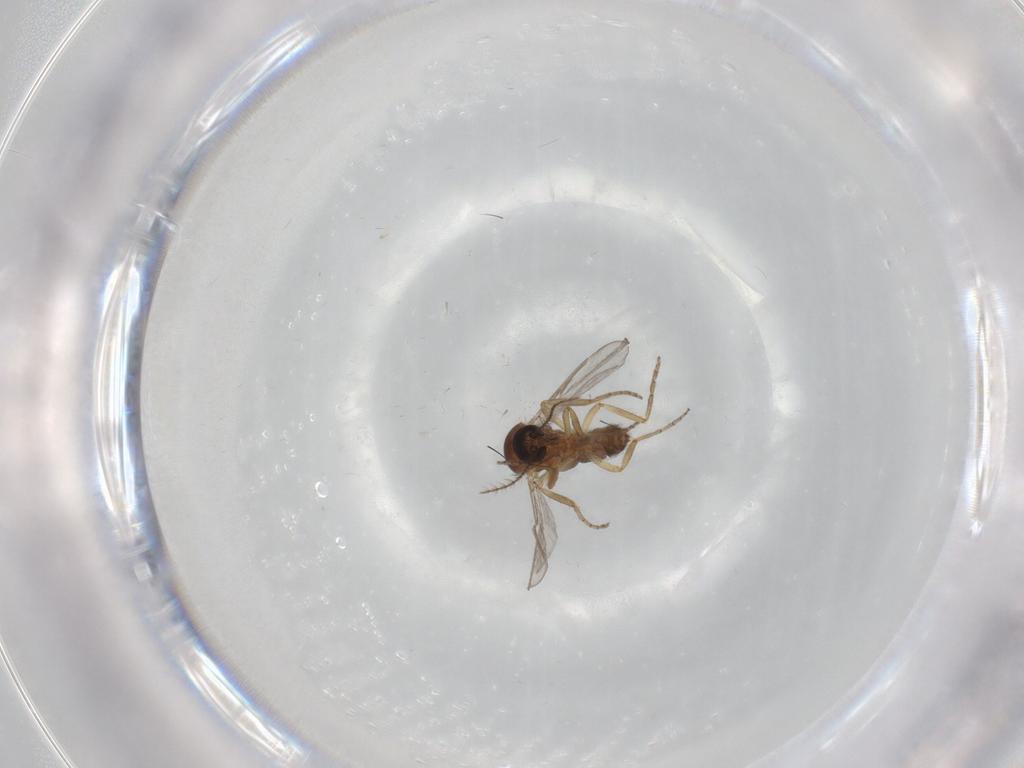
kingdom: Animalia
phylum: Arthropoda
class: Insecta
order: Diptera
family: Ceratopogonidae
